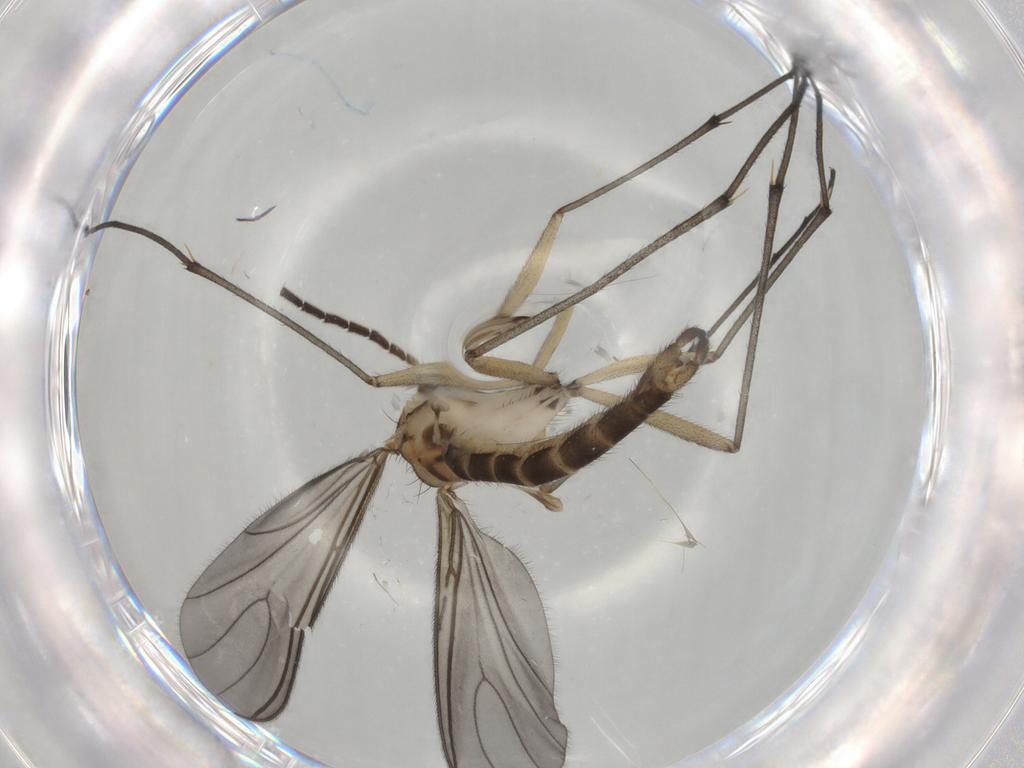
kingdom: Animalia
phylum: Arthropoda
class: Insecta
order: Diptera
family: Sciaridae
